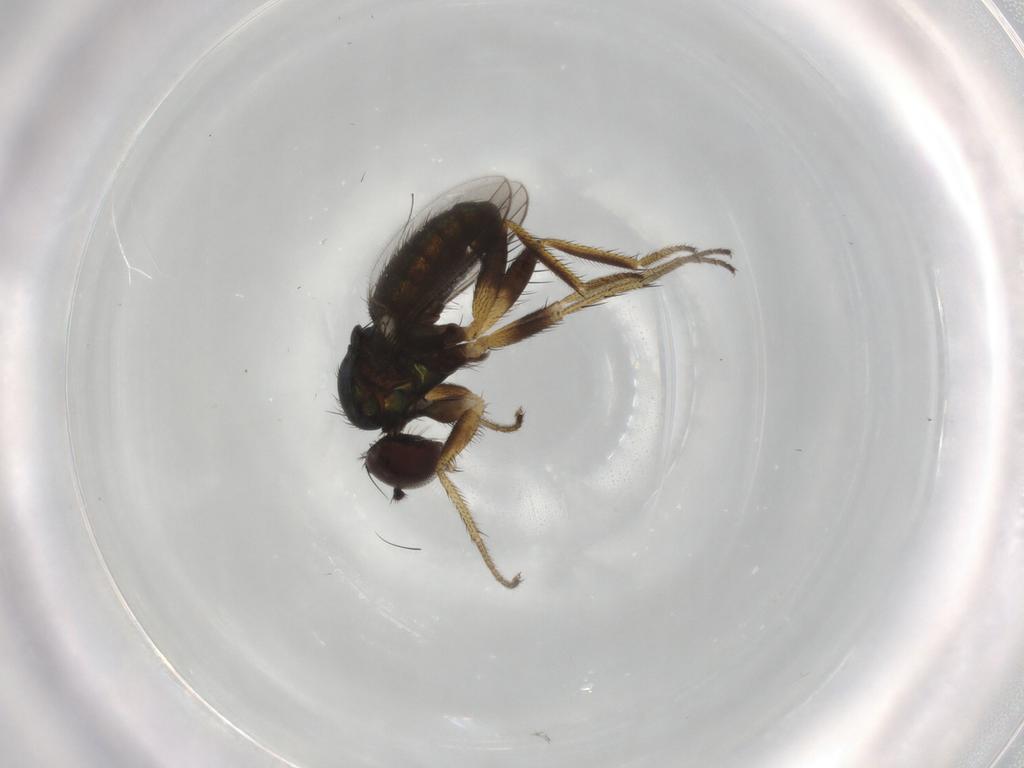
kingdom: Animalia
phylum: Arthropoda
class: Insecta
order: Diptera
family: Dolichopodidae
